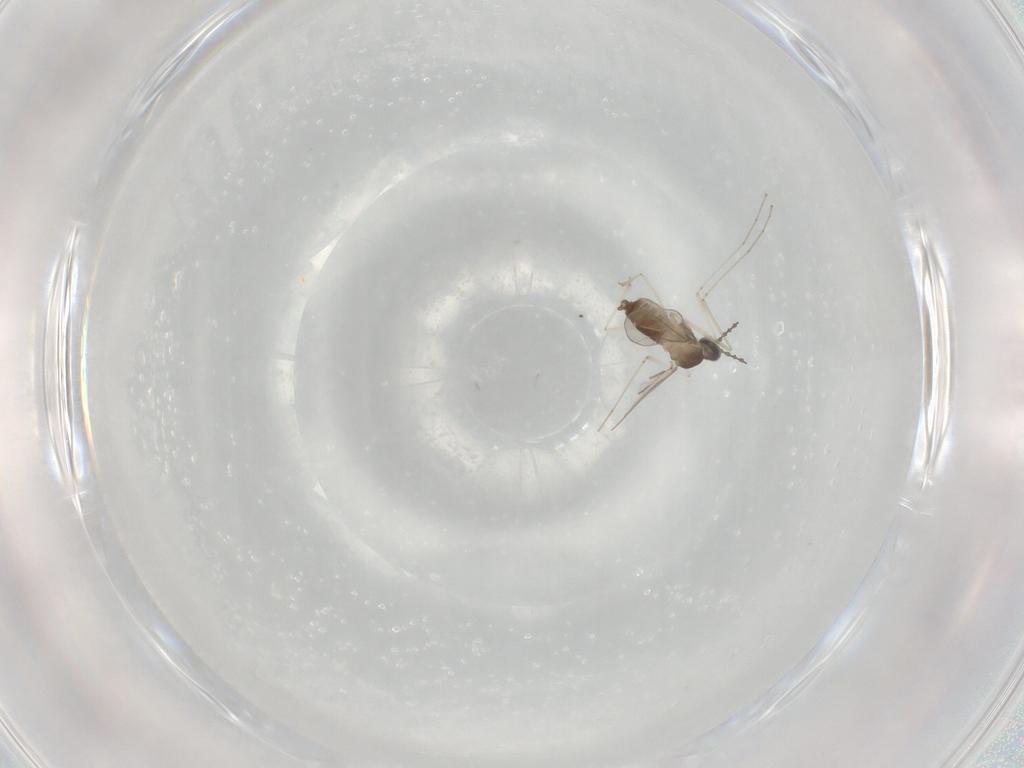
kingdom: Animalia
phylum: Arthropoda
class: Insecta
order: Diptera
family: Cecidomyiidae
